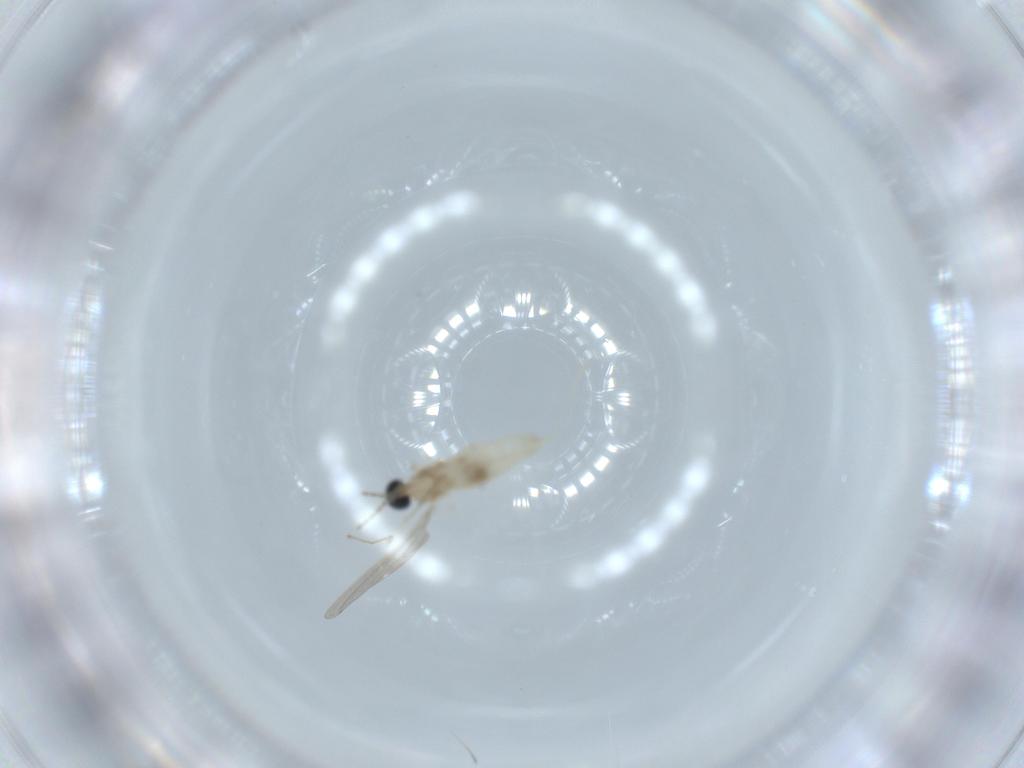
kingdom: Animalia
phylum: Arthropoda
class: Insecta
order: Diptera
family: Cecidomyiidae
